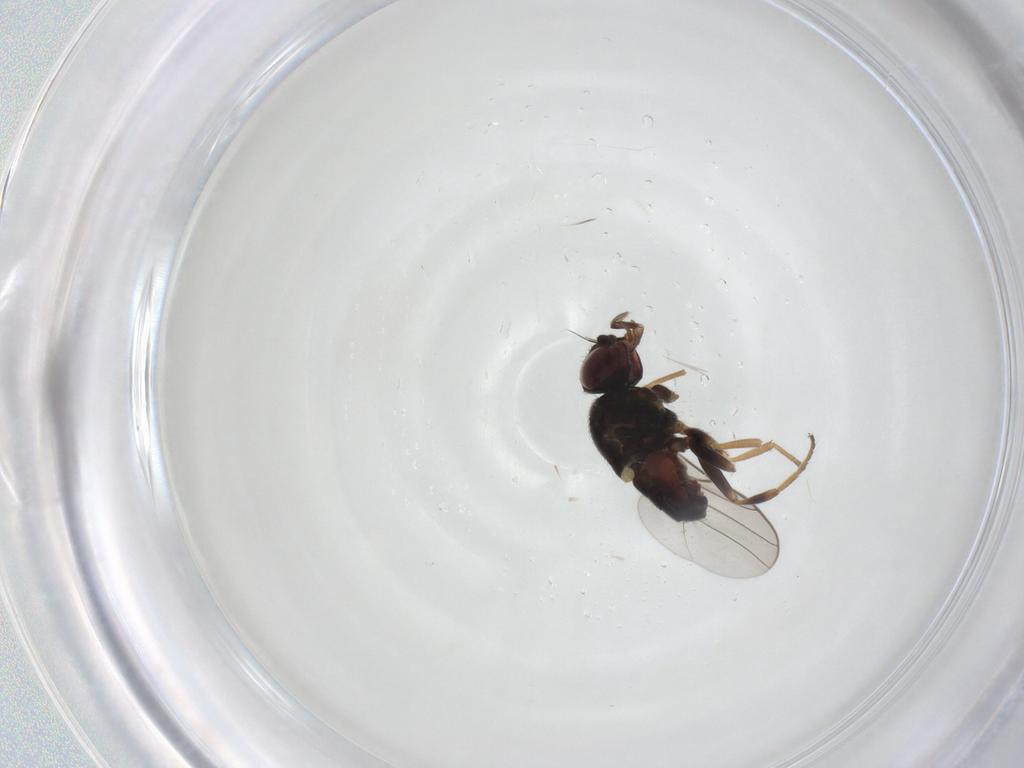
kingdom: Animalia
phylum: Arthropoda
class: Insecta
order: Diptera
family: Chloropidae
